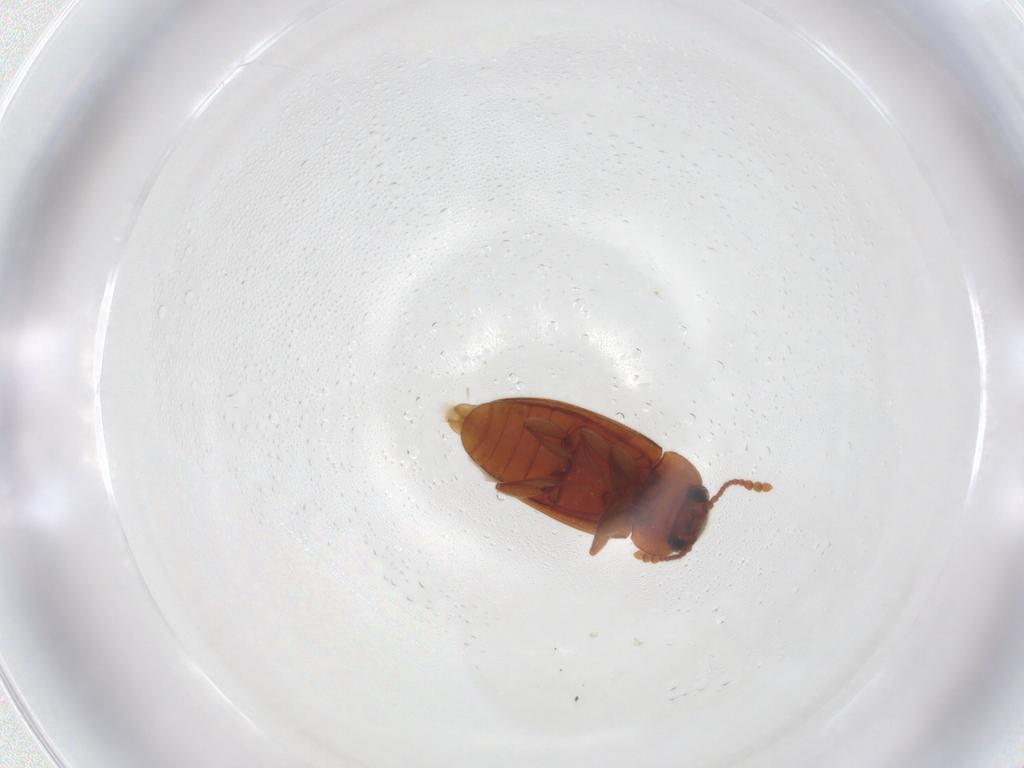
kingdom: Animalia
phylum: Arthropoda
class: Insecta
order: Coleoptera
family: Erotylidae
